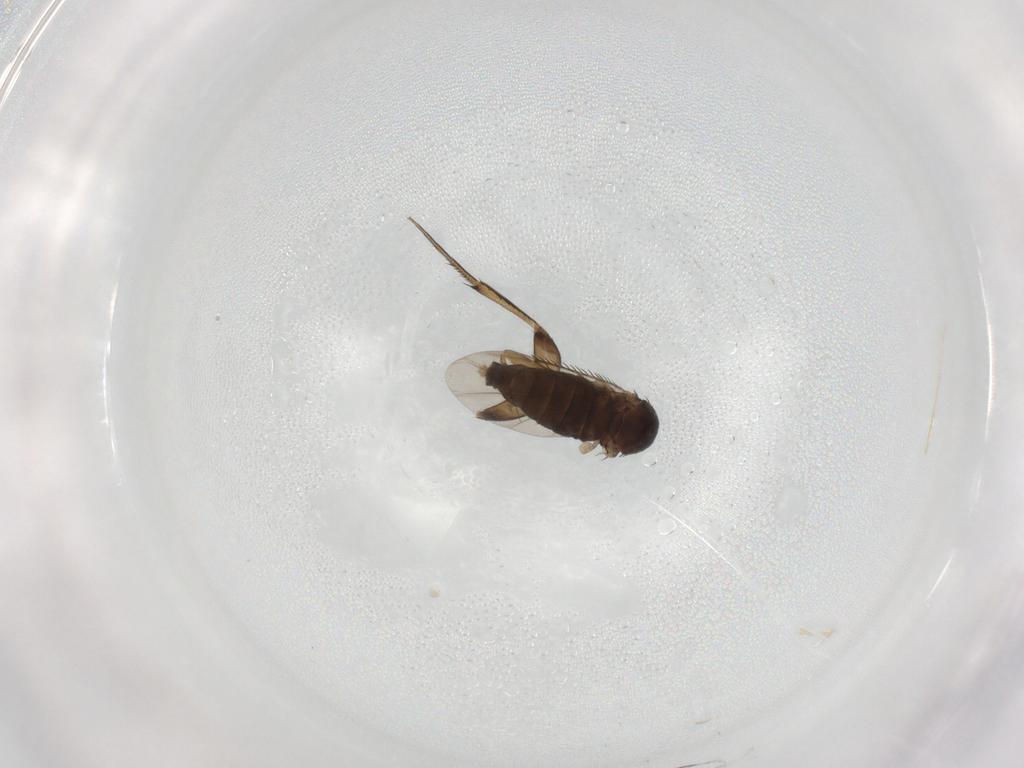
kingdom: Animalia
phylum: Arthropoda
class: Insecta
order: Diptera
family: Phoridae
